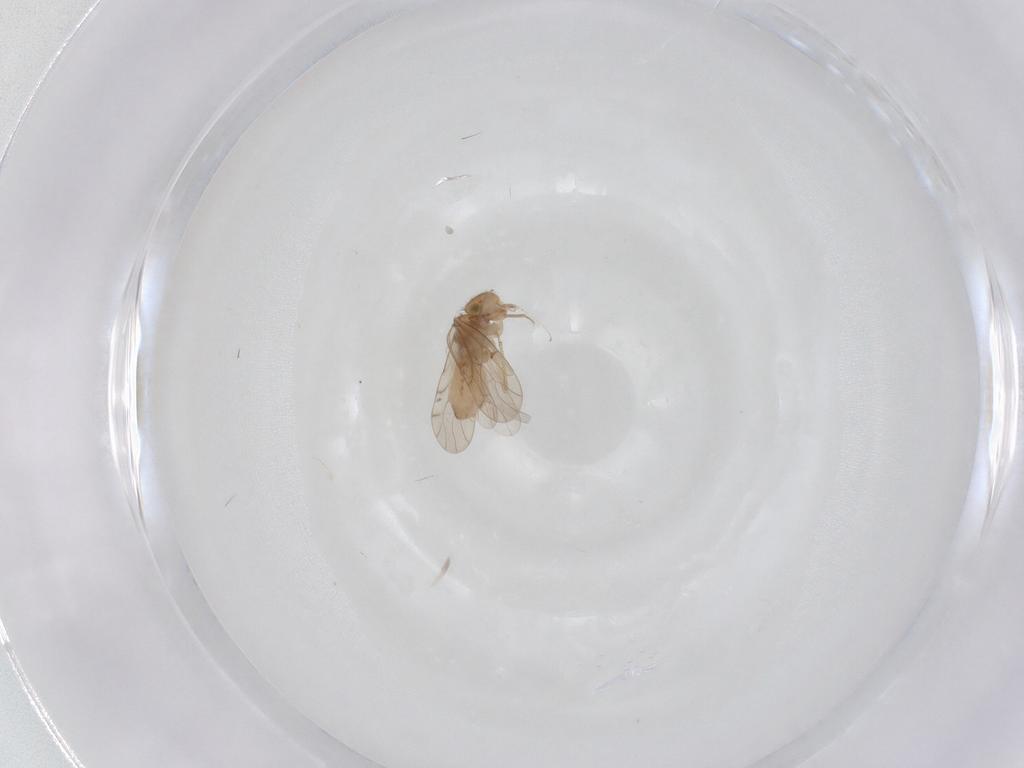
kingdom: Animalia
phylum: Arthropoda
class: Insecta
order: Psocodea
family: Ectopsocidae
